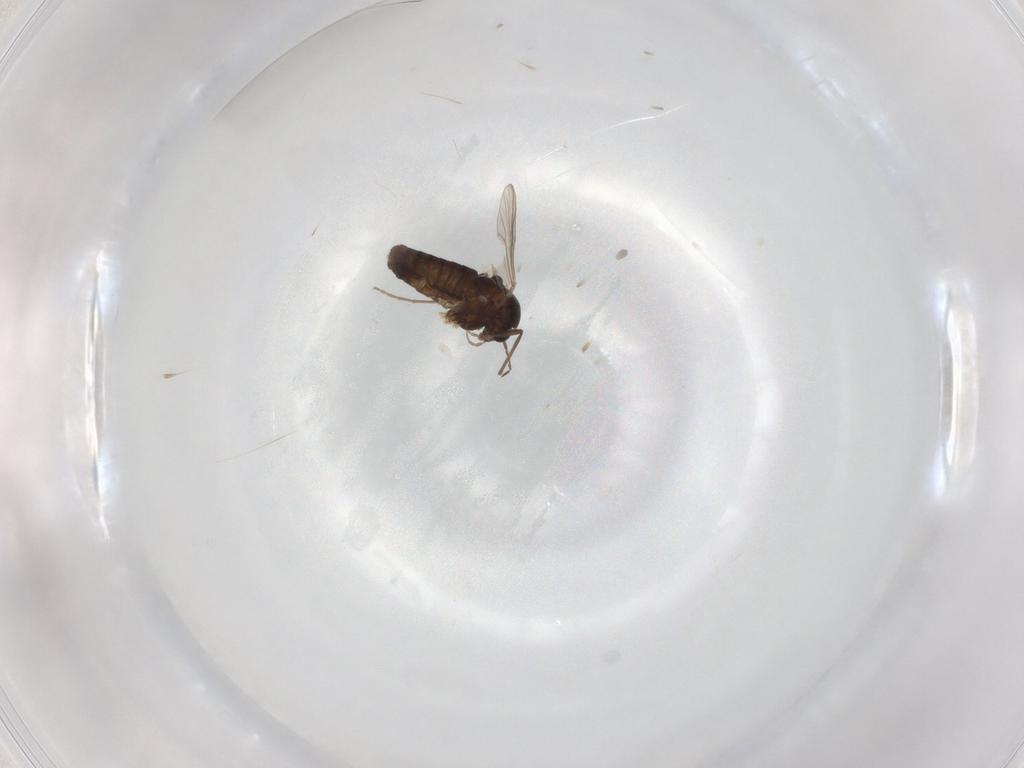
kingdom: Animalia
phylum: Arthropoda
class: Insecta
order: Diptera
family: Chironomidae
